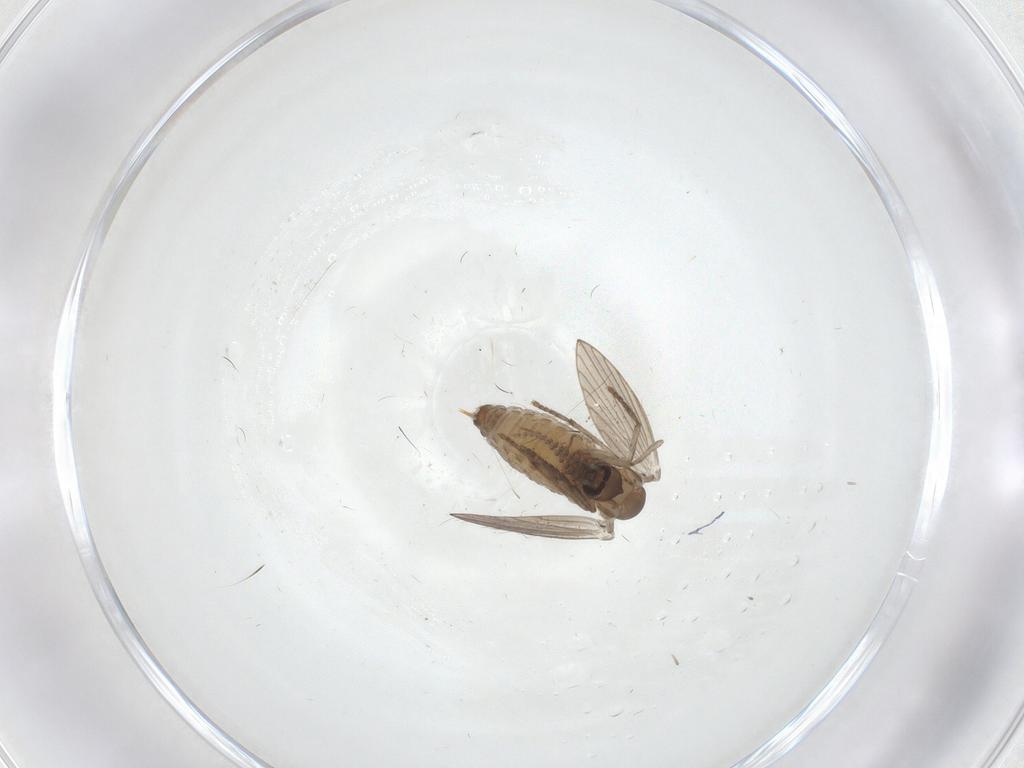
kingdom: Animalia
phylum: Arthropoda
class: Insecta
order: Diptera
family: Psychodidae
